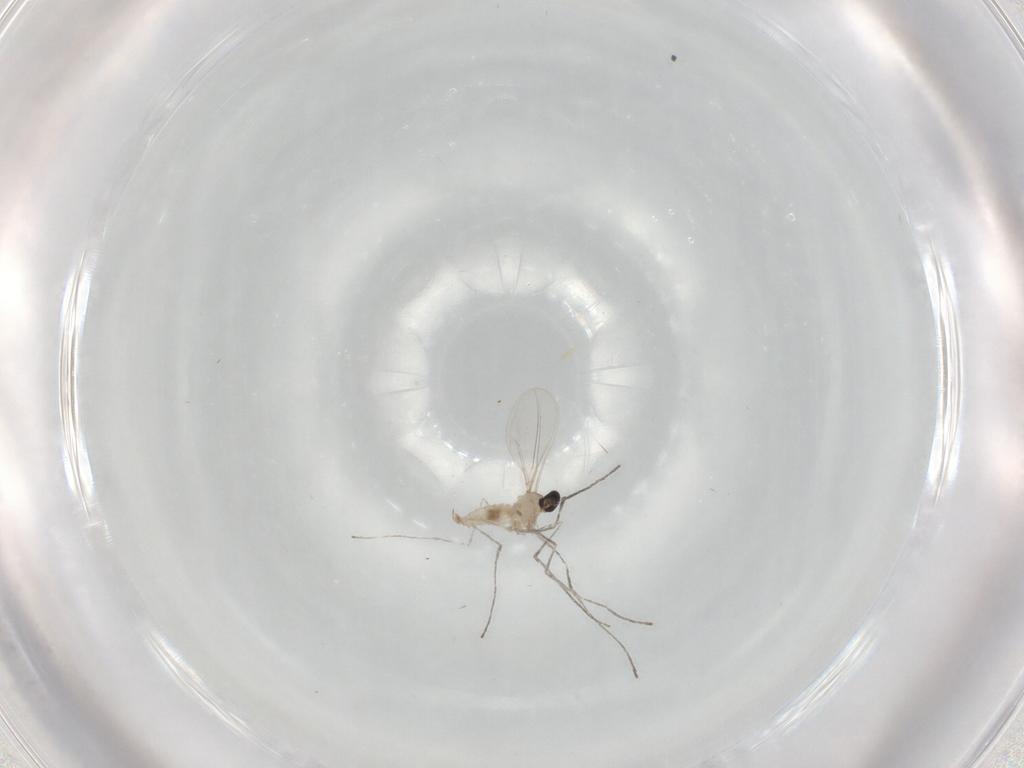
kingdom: Animalia
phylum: Arthropoda
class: Insecta
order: Diptera
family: Cecidomyiidae
